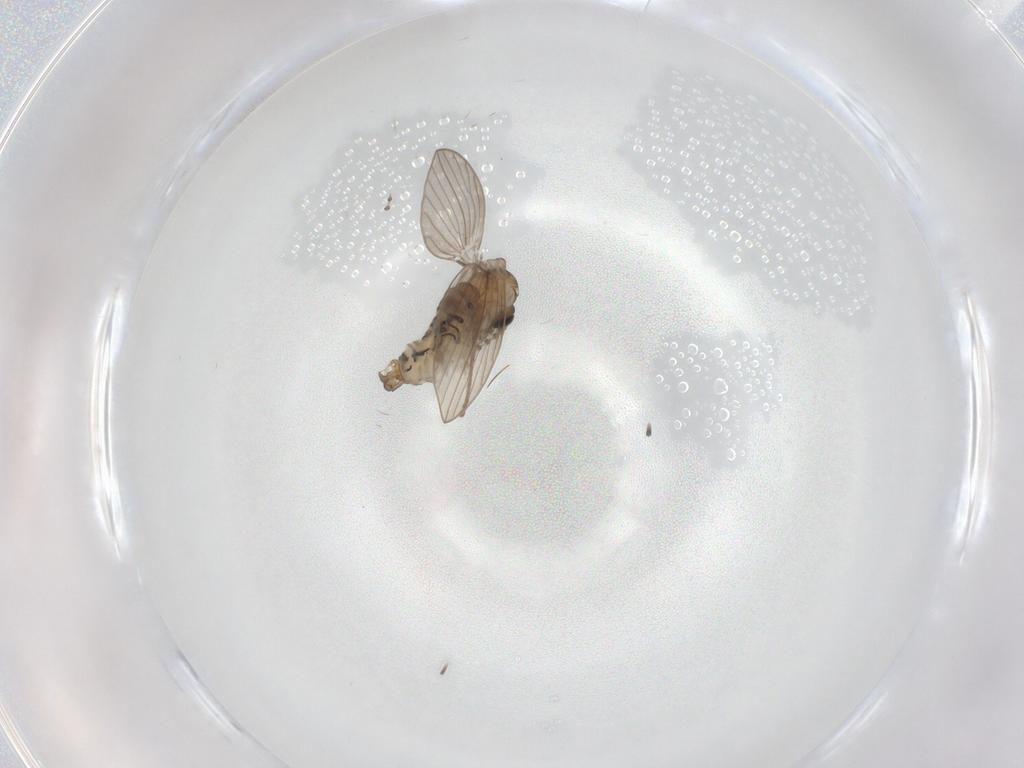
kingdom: Animalia
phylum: Arthropoda
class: Insecta
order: Diptera
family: Psychodidae
